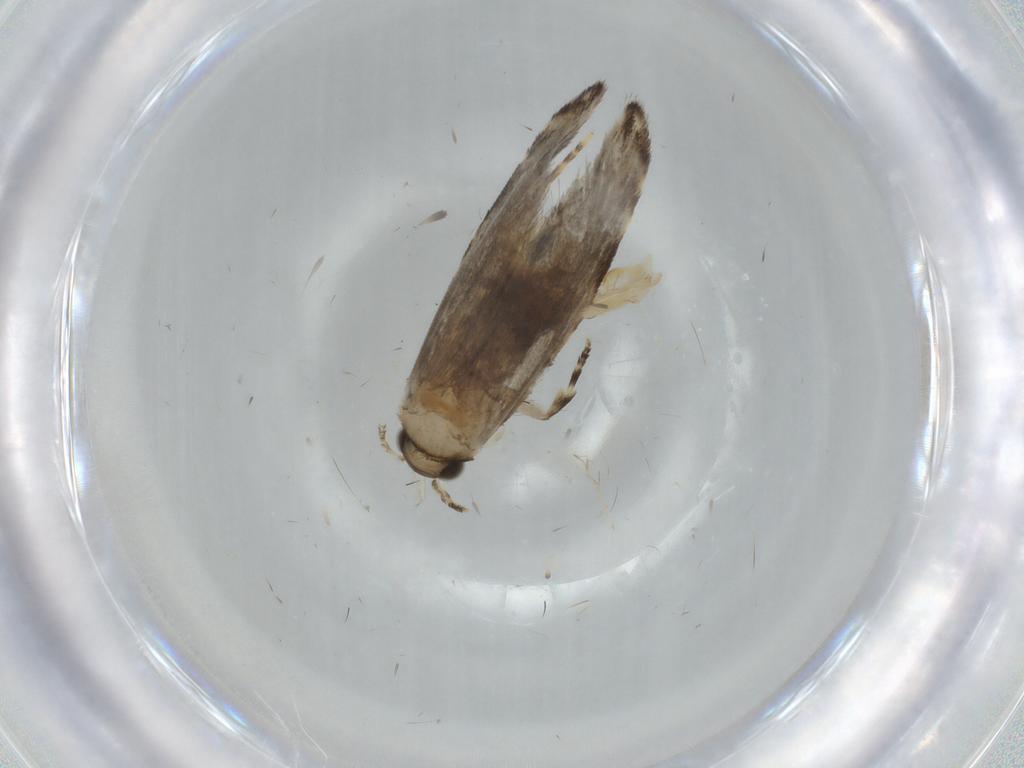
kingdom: Animalia
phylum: Arthropoda
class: Insecta
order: Lepidoptera
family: Tineidae
